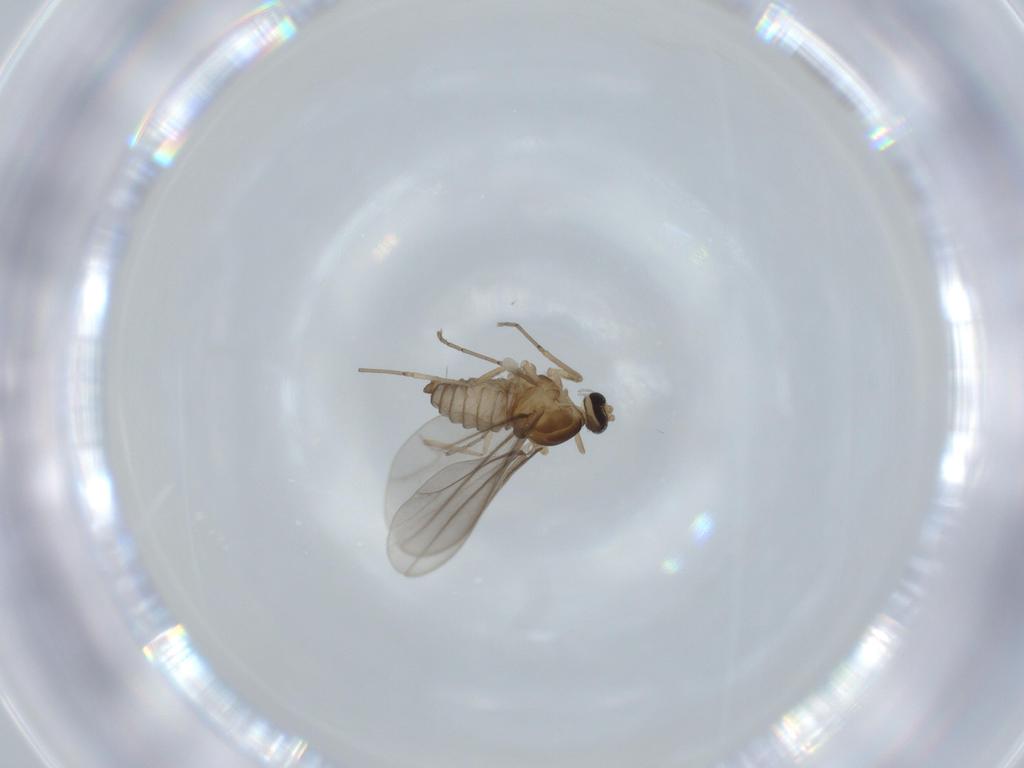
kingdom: Animalia
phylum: Arthropoda
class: Insecta
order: Diptera
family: Cecidomyiidae
